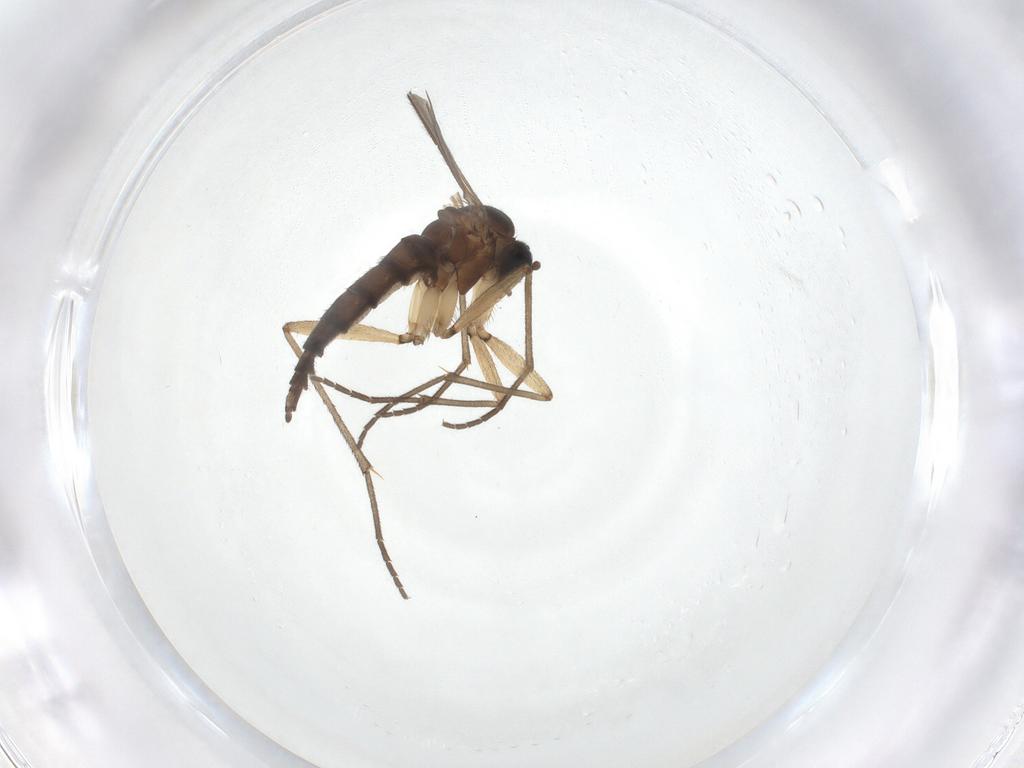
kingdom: Animalia
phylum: Arthropoda
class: Insecta
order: Diptera
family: Sciaridae
